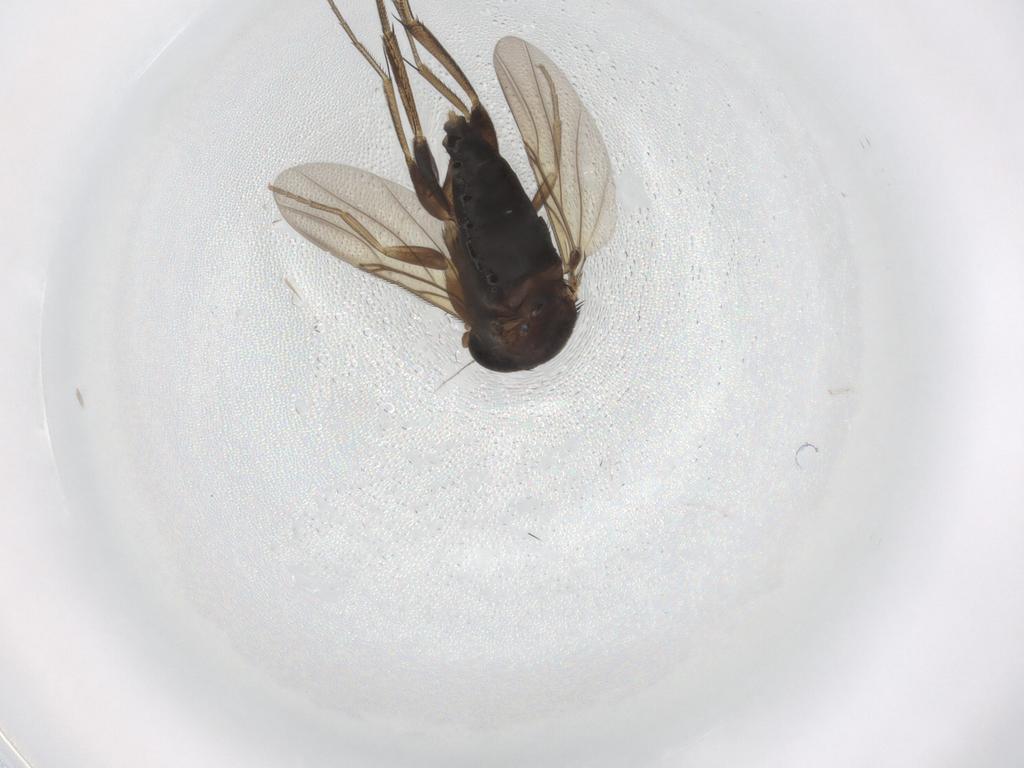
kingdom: Animalia
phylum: Arthropoda
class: Insecta
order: Diptera
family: Phoridae
